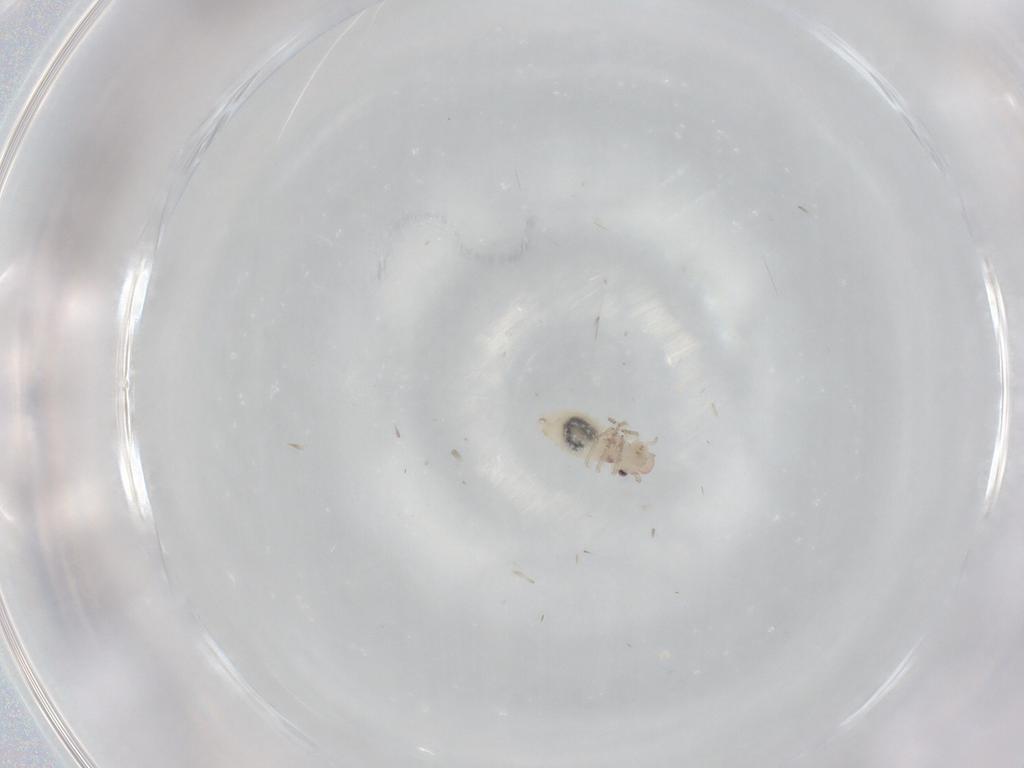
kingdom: Animalia
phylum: Arthropoda
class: Insecta
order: Psocodea
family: Caeciliusidae
